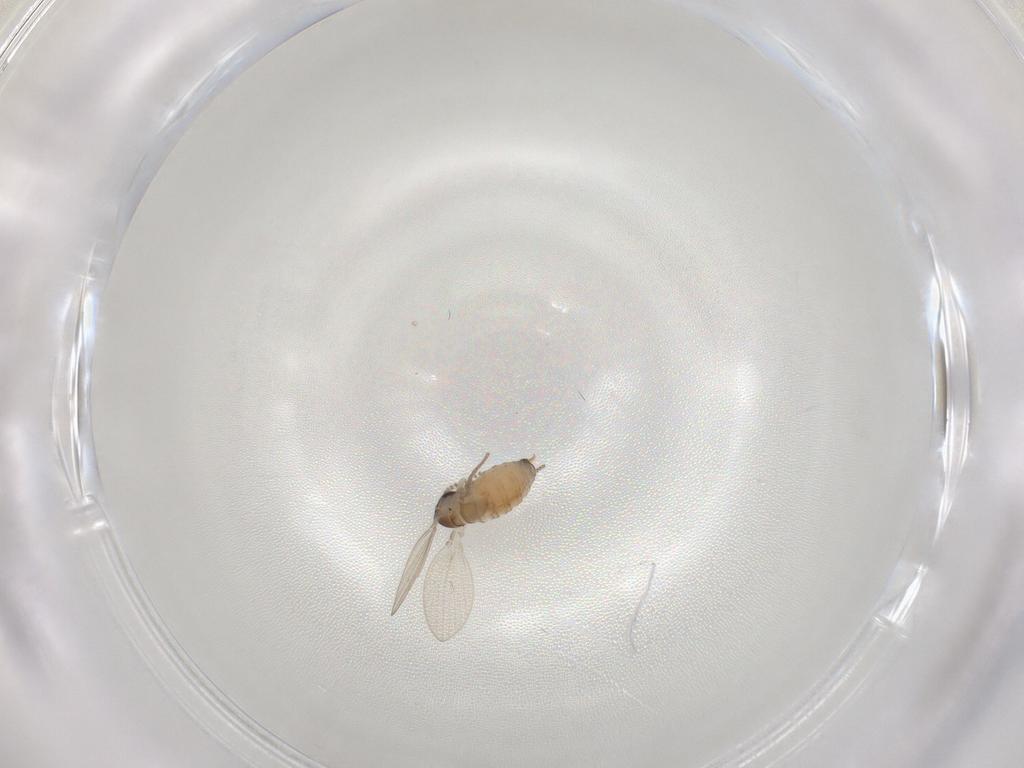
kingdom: Animalia
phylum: Arthropoda
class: Insecta
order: Diptera
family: Psychodidae
